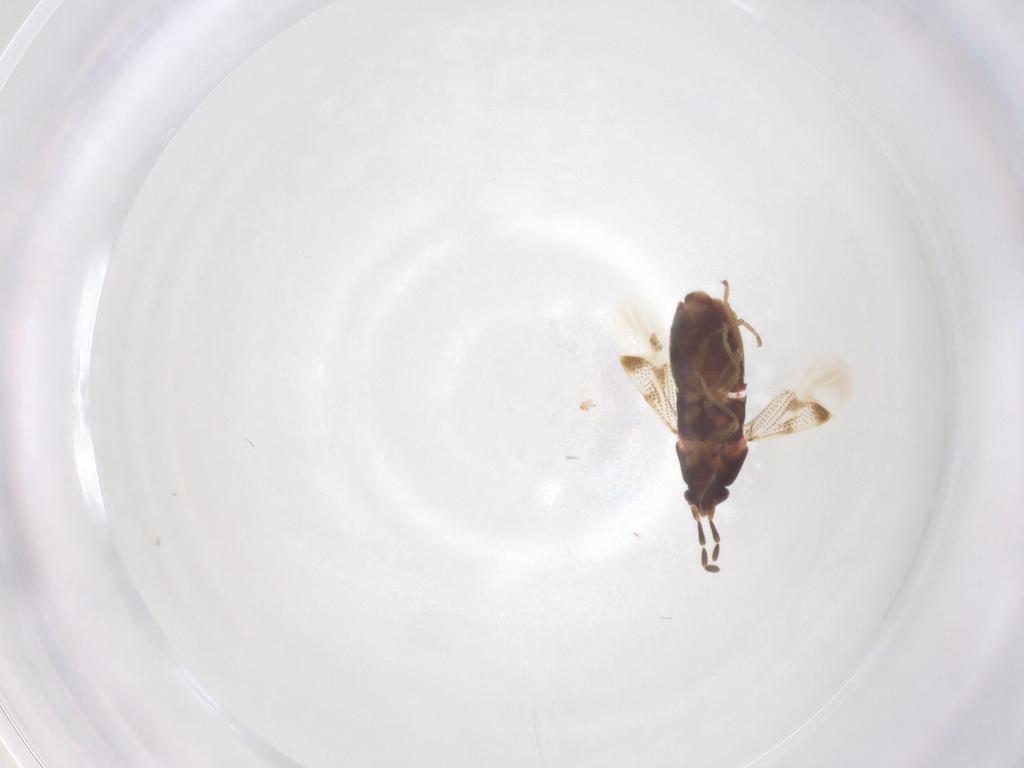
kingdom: Animalia
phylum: Arthropoda
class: Insecta
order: Hemiptera
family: Rhyparochromidae
